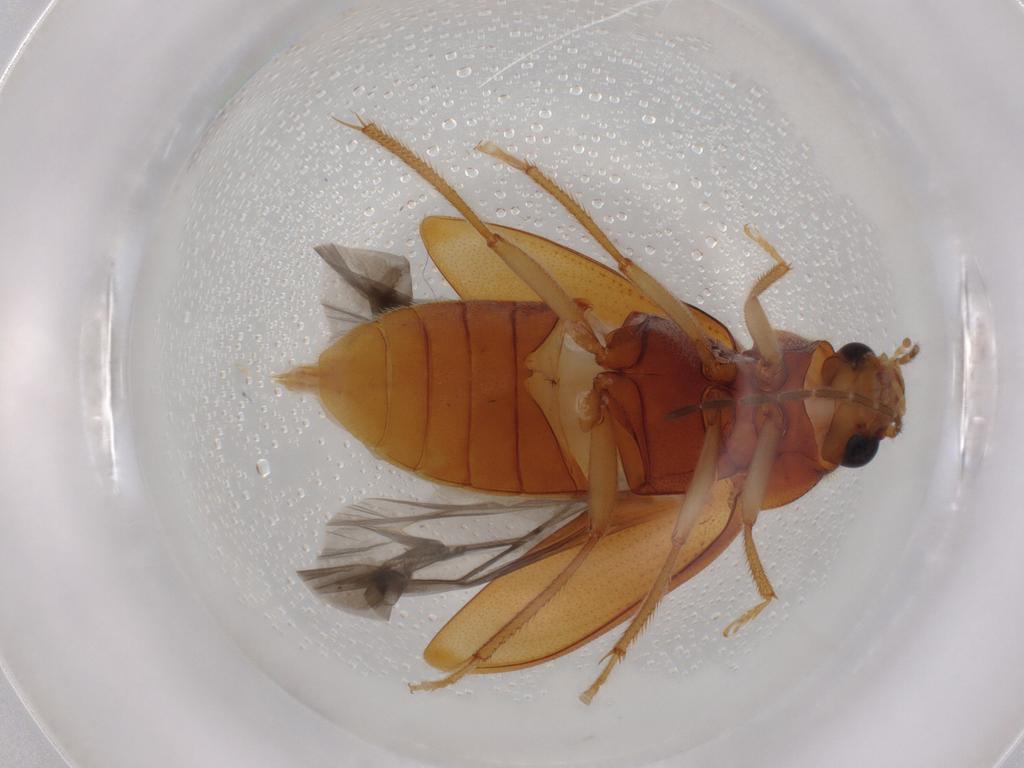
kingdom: Animalia
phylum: Arthropoda
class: Insecta
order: Coleoptera
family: Ptilodactylidae
